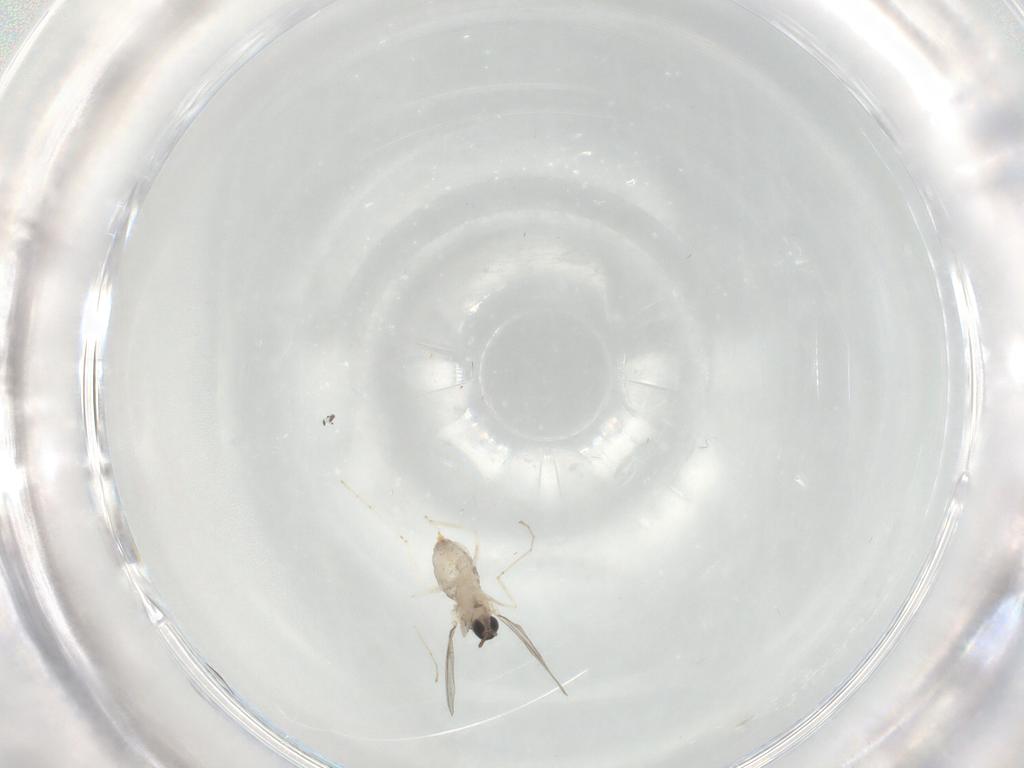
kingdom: Animalia
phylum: Arthropoda
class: Insecta
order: Diptera
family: Cecidomyiidae
